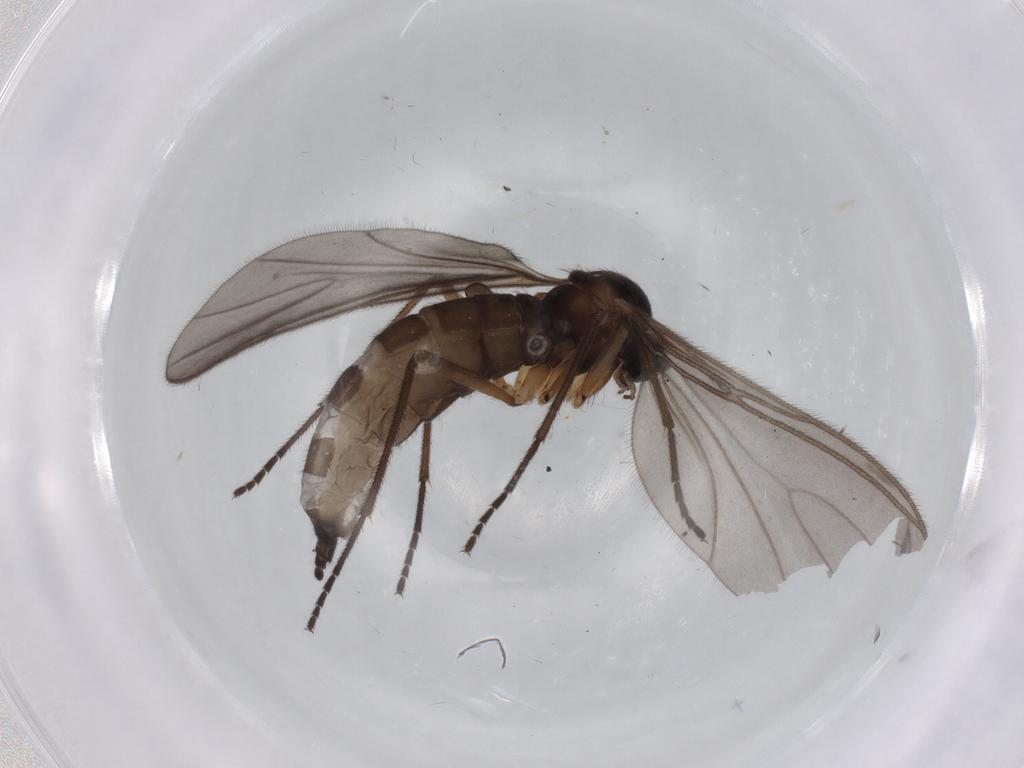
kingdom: Animalia
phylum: Arthropoda
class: Insecta
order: Diptera
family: Sciaridae
